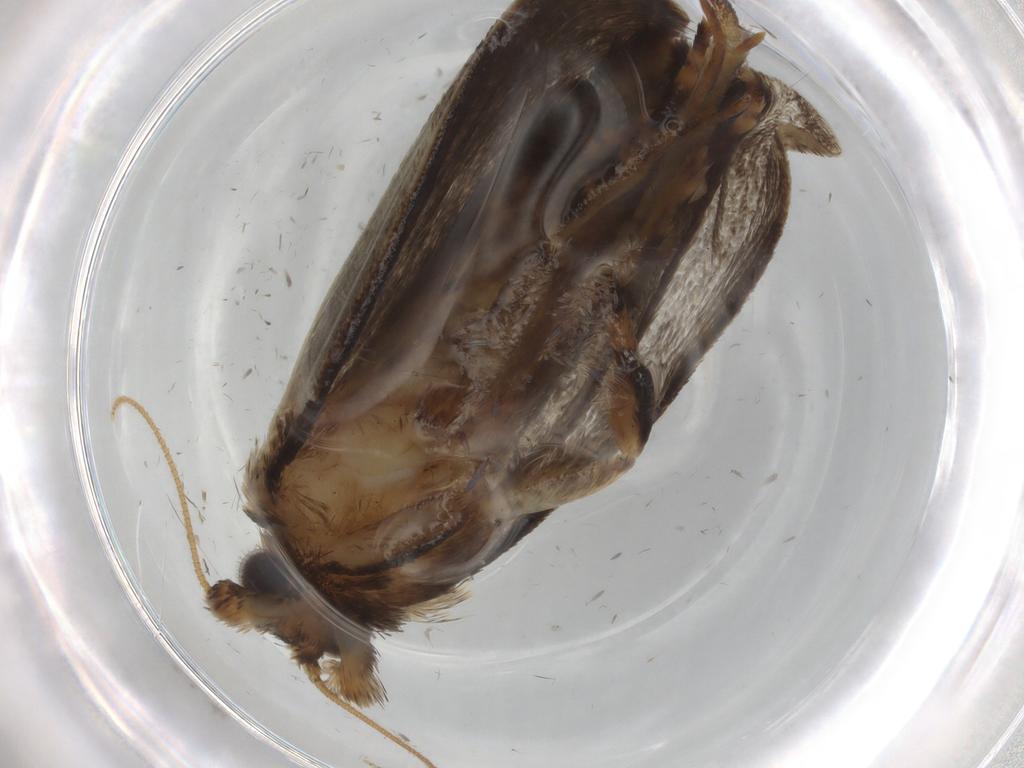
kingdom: Animalia
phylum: Arthropoda
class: Insecta
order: Lepidoptera
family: Tineidae
